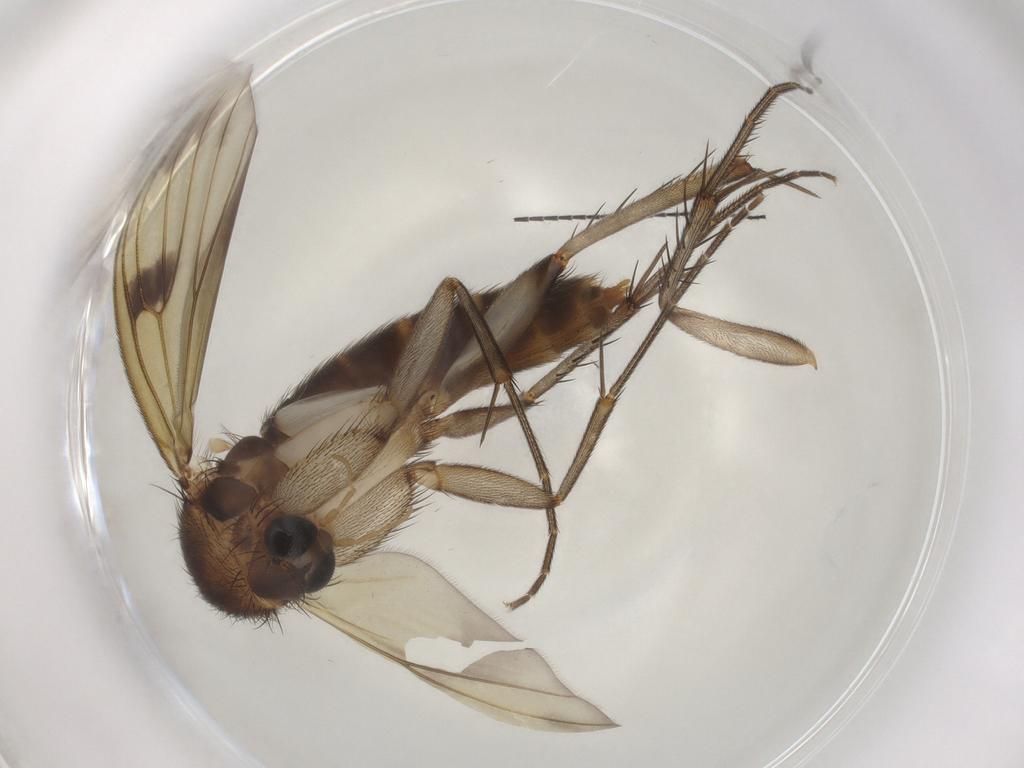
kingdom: Animalia
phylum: Arthropoda
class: Insecta
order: Diptera
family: Mycetophilidae
